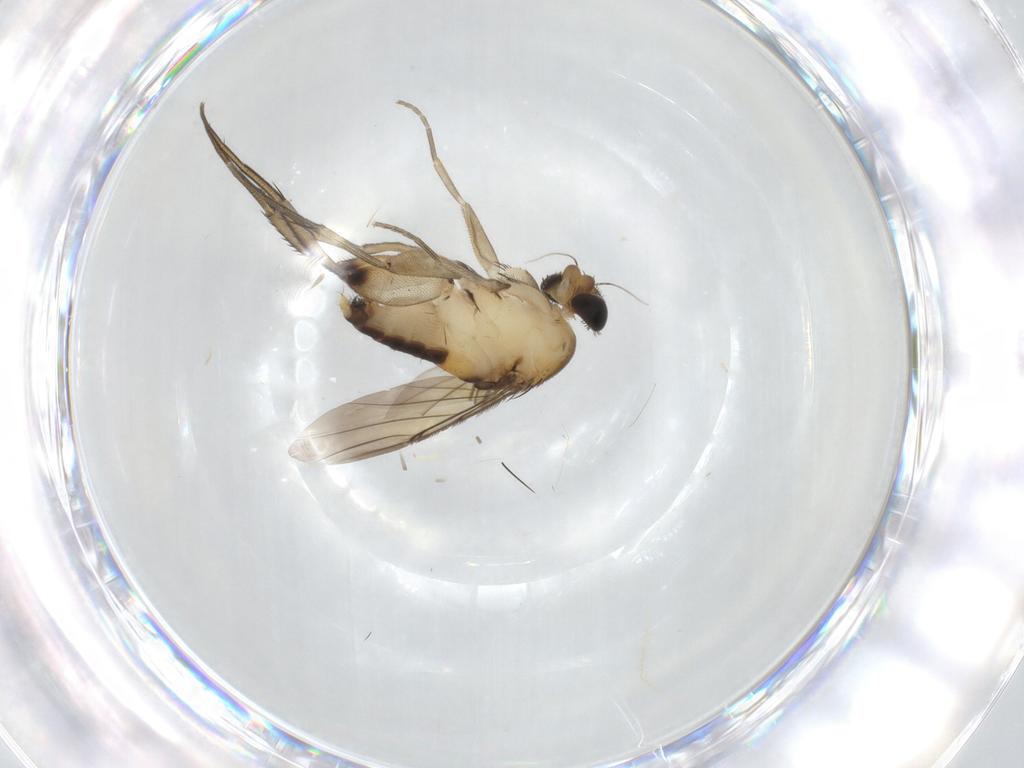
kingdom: Animalia
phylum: Arthropoda
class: Insecta
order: Diptera
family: Phoridae
